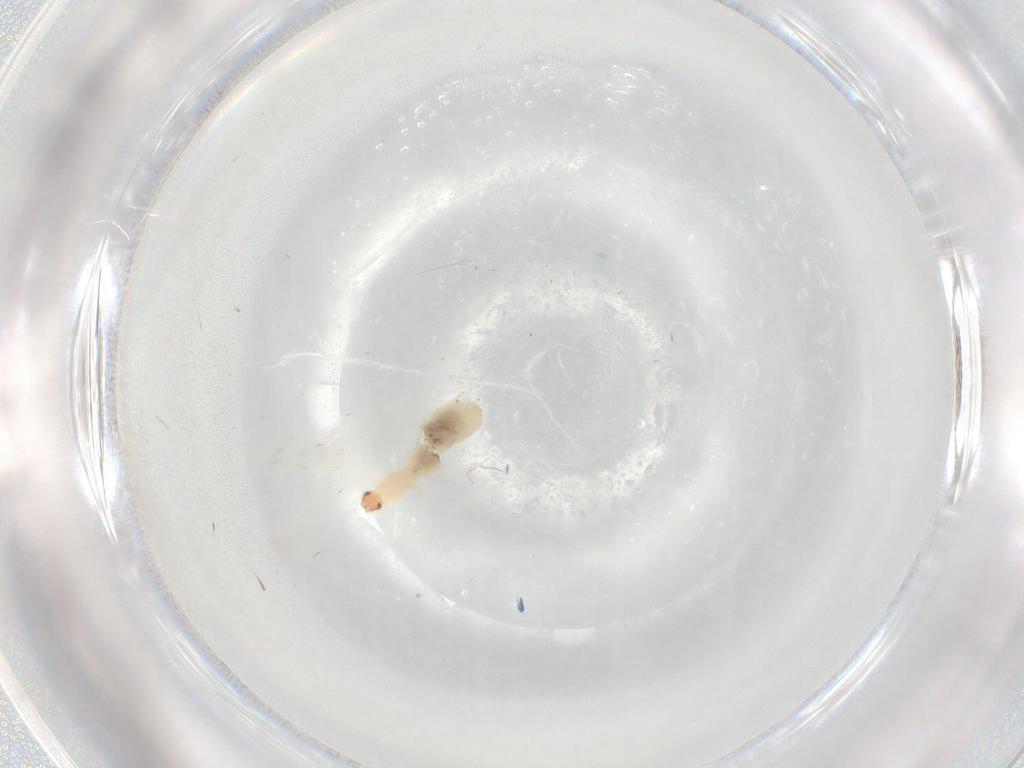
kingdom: Animalia
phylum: Arthropoda
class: Insecta
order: Diptera
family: Cecidomyiidae
